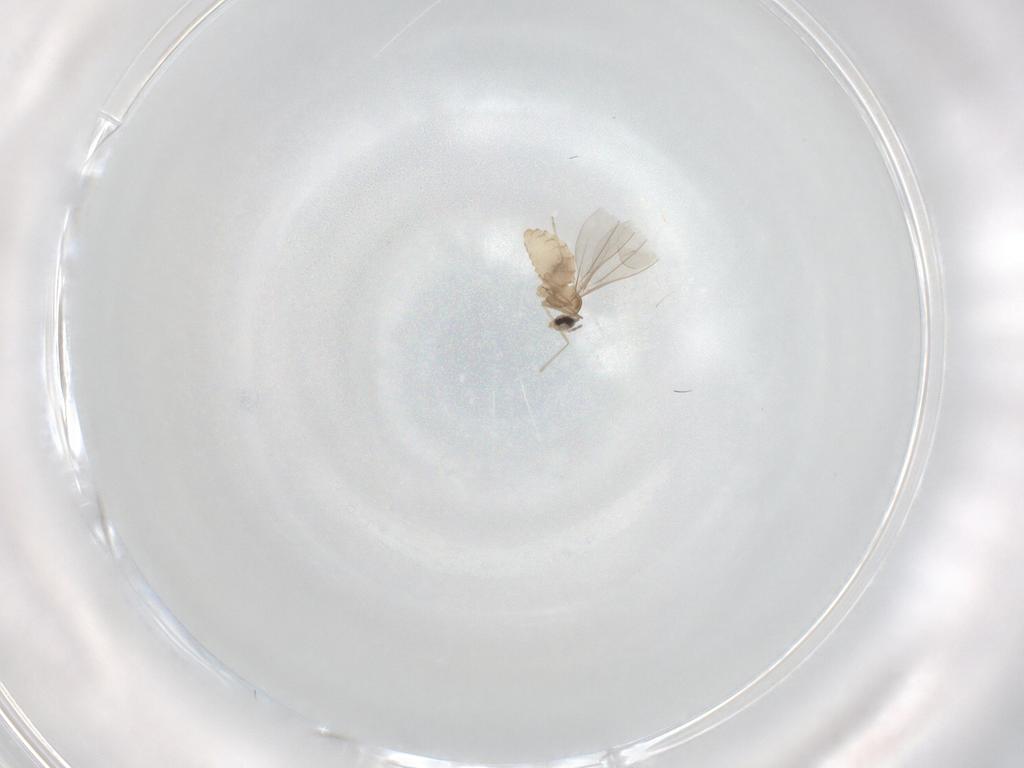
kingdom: Animalia
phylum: Arthropoda
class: Insecta
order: Diptera
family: Cecidomyiidae
